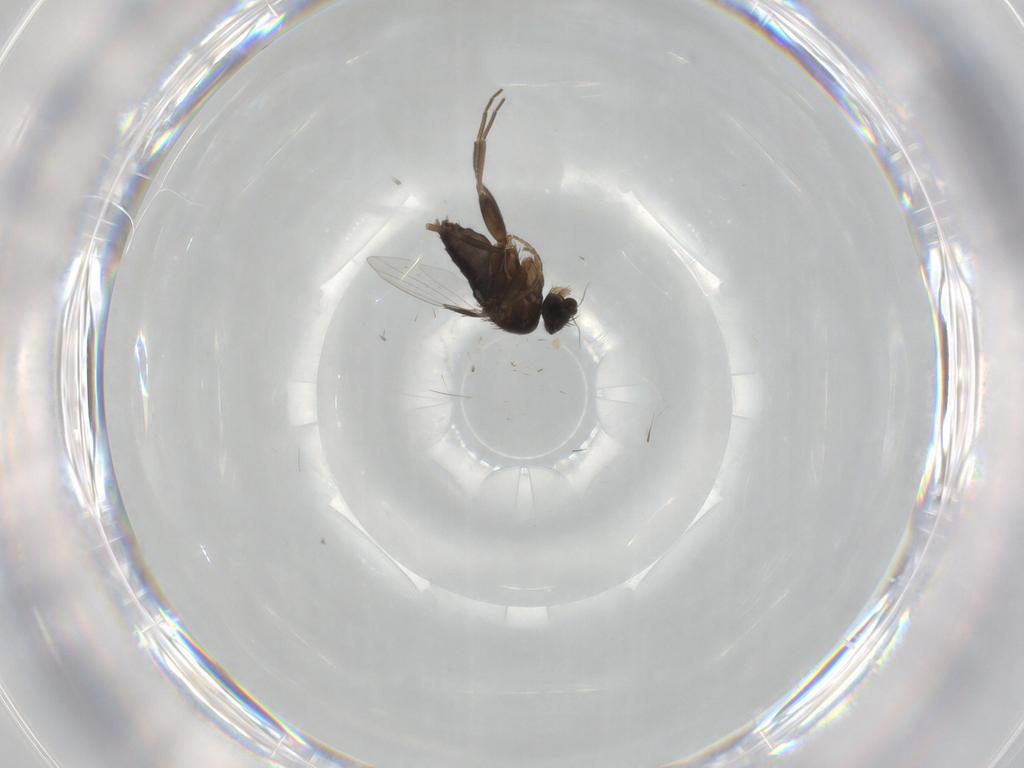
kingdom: Animalia
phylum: Arthropoda
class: Insecta
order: Diptera
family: Phoridae
